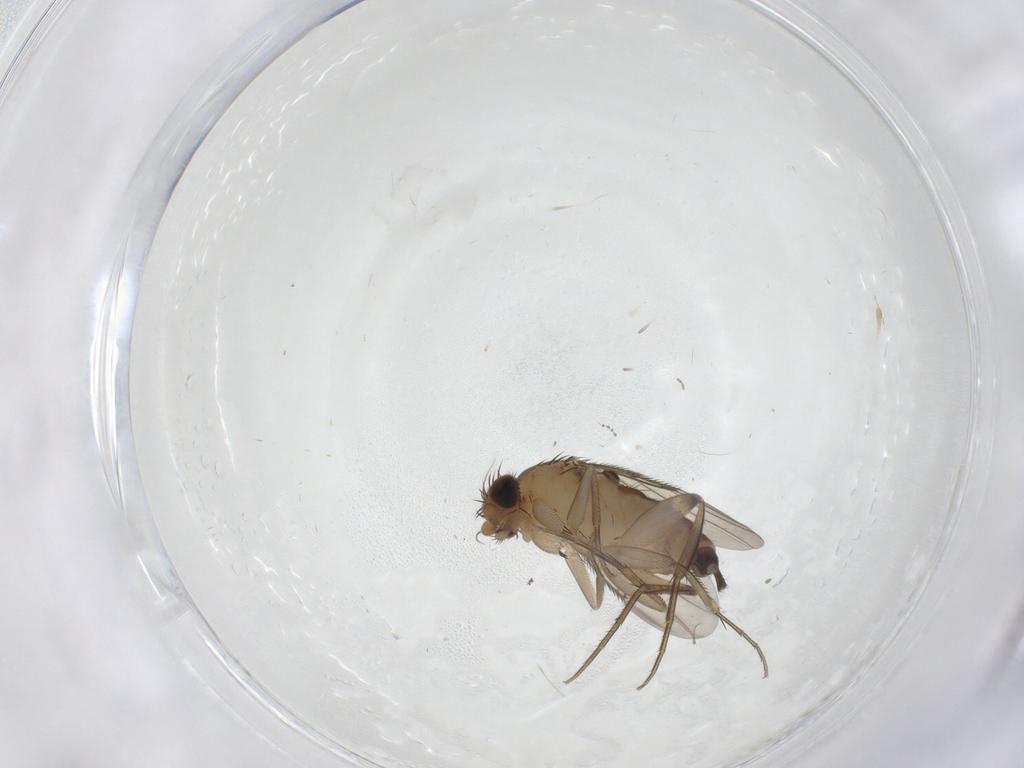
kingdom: Animalia
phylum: Arthropoda
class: Insecta
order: Diptera
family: Phoridae
